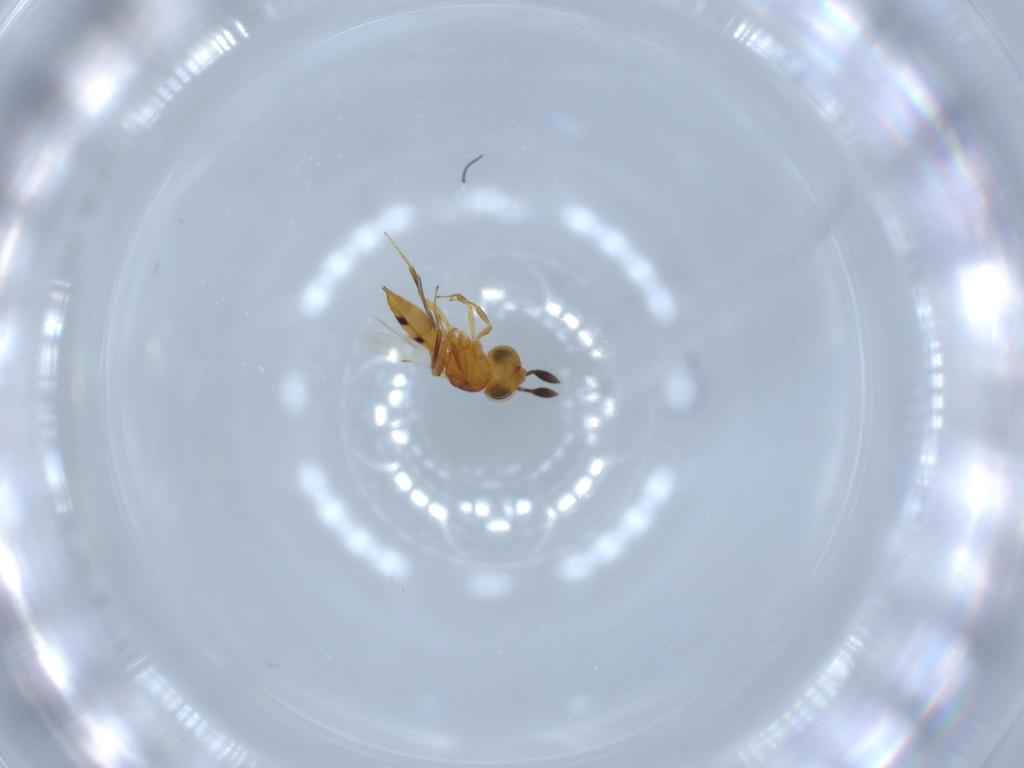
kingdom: Animalia
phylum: Arthropoda
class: Insecta
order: Hymenoptera
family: Scelionidae
